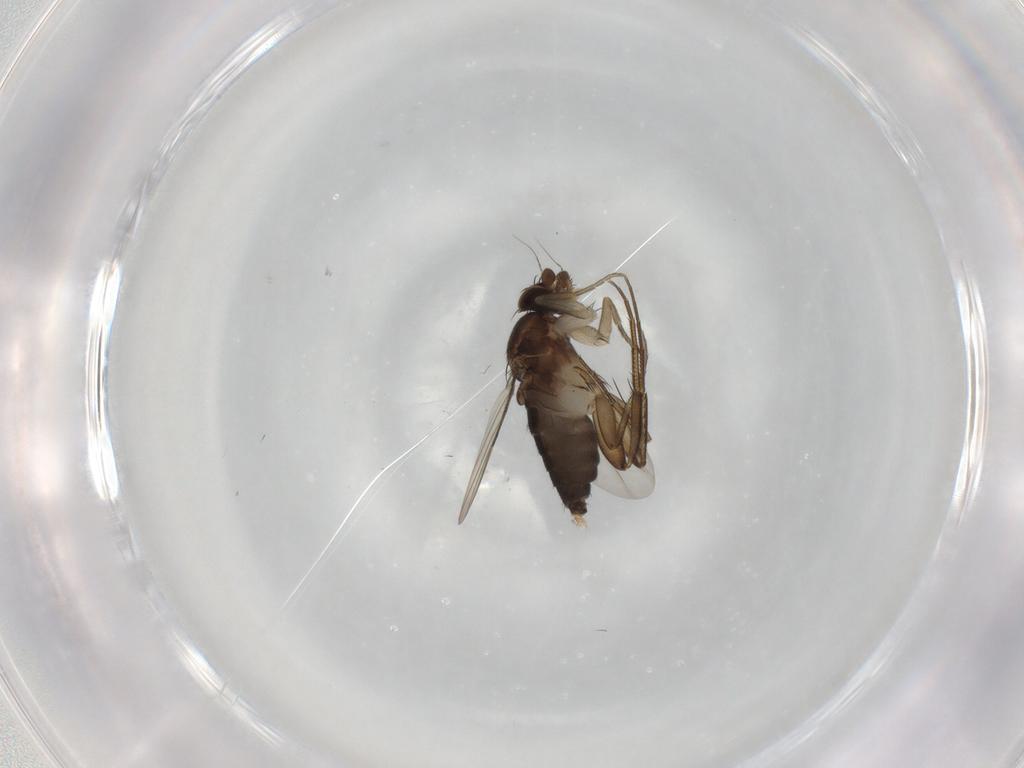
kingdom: Animalia
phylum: Arthropoda
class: Insecta
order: Diptera
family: Phoridae
